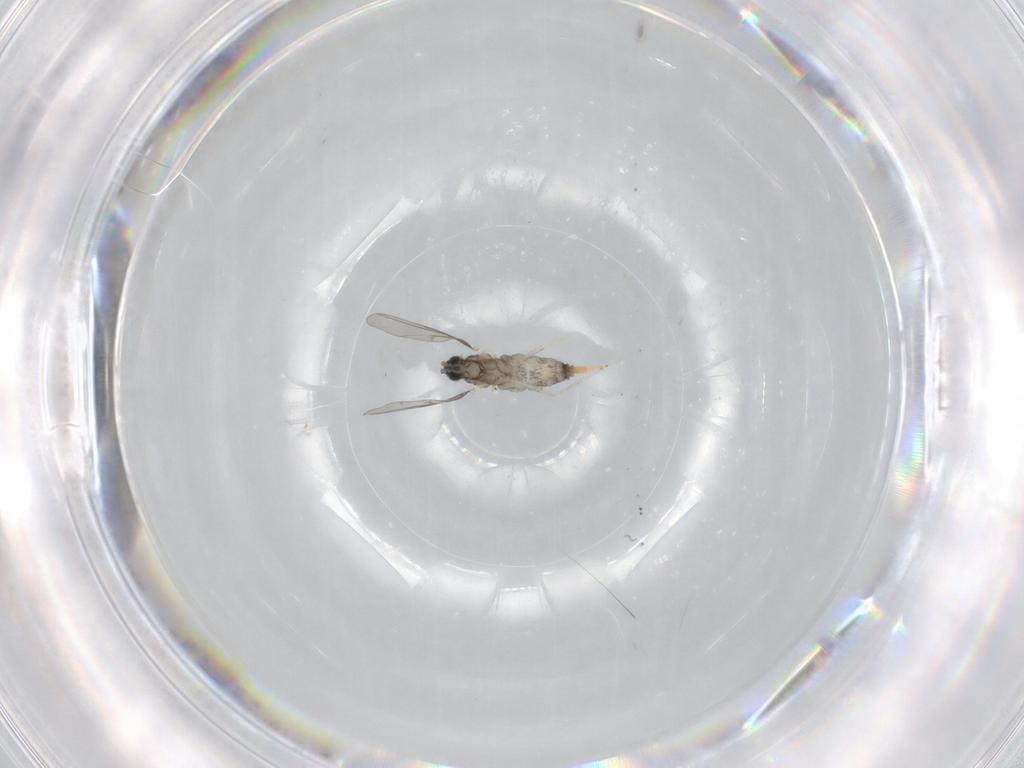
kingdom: Animalia
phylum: Arthropoda
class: Insecta
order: Diptera
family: Cecidomyiidae
